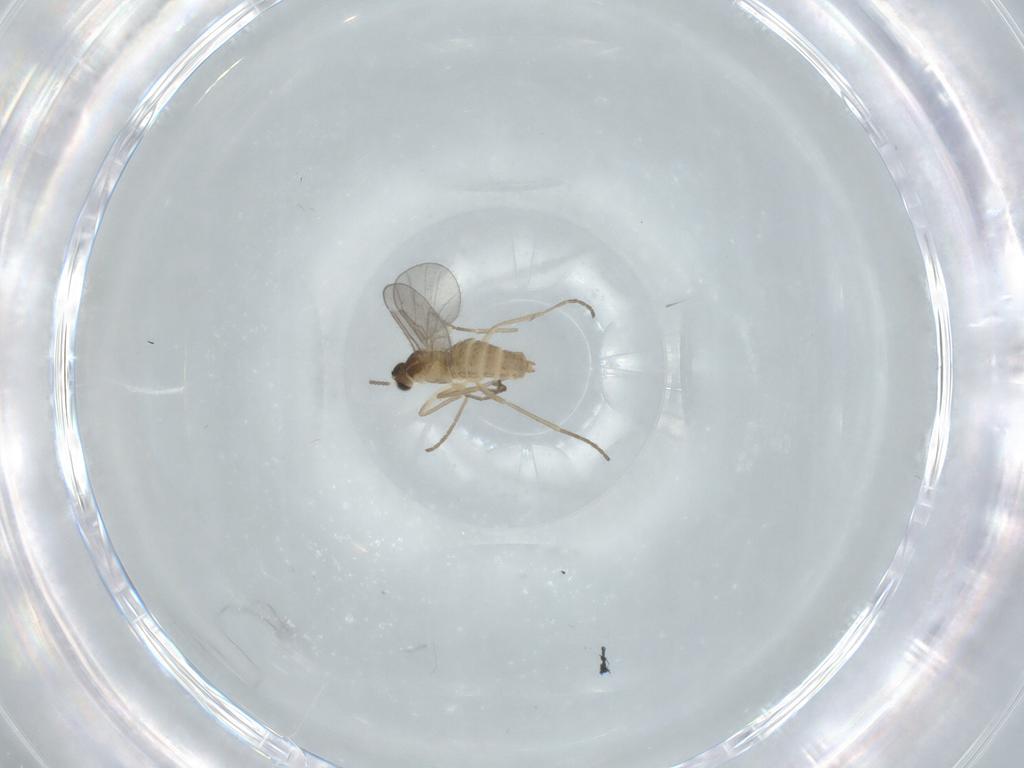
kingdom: Animalia
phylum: Arthropoda
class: Insecta
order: Diptera
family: Cecidomyiidae
